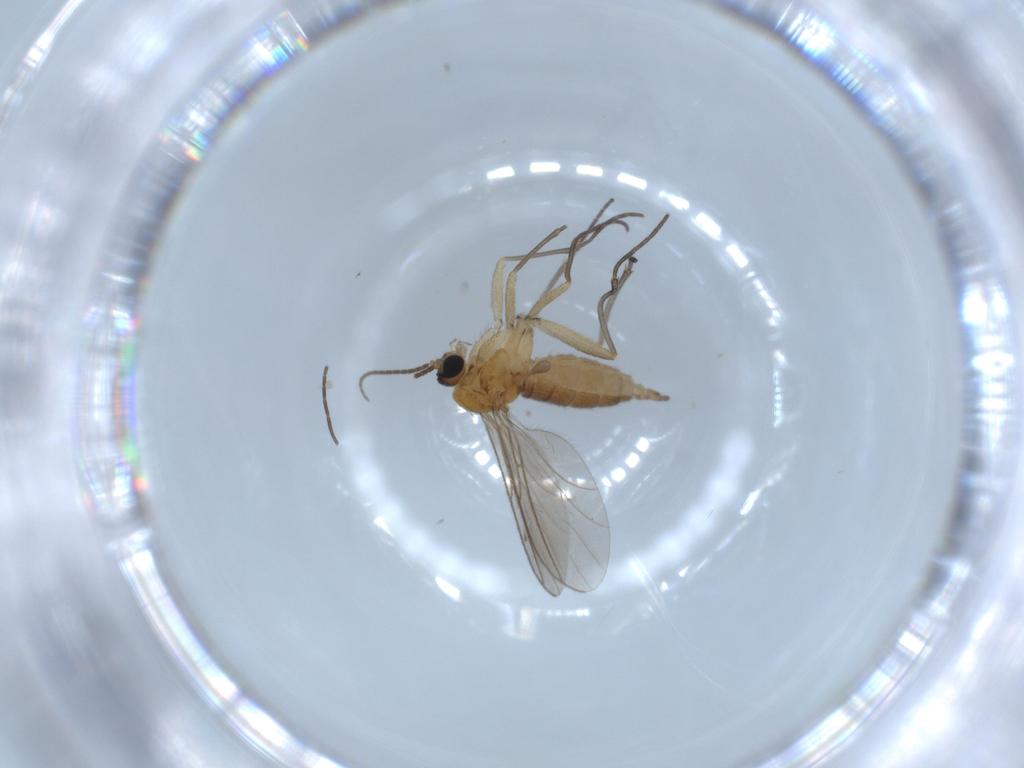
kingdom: Animalia
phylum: Arthropoda
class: Insecta
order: Diptera
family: Sciaridae
